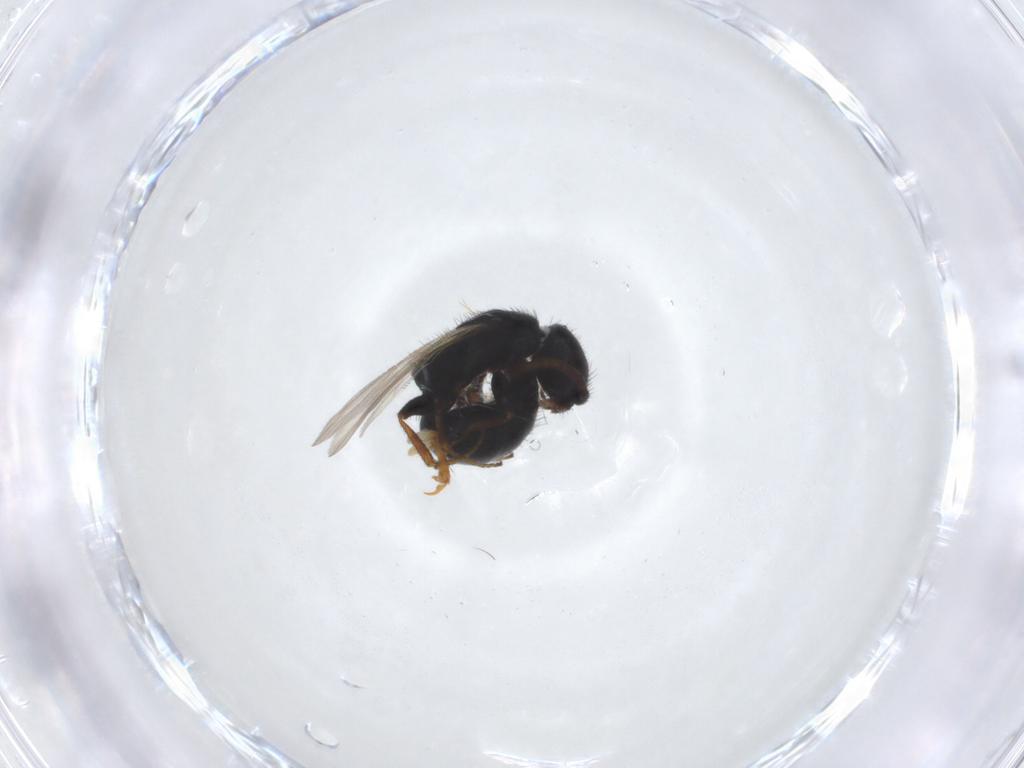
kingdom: Animalia
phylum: Arthropoda
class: Insecta
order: Hymenoptera
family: Bethylidae
